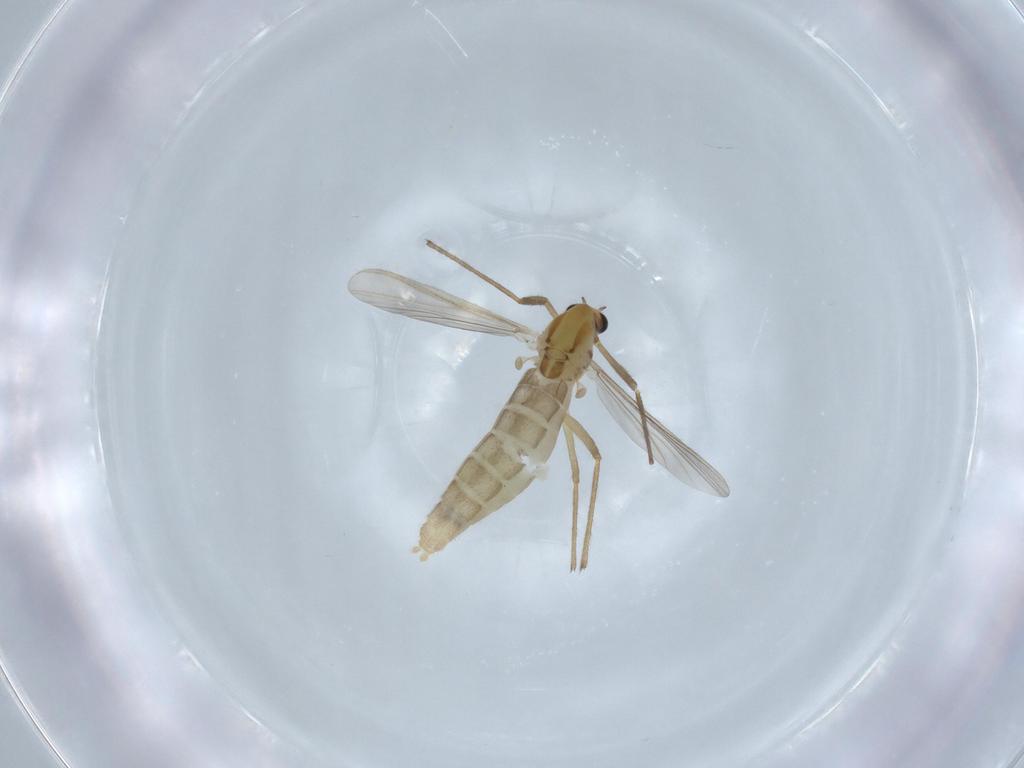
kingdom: Animalia
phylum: Arthropoda
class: Insecta
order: Diptera
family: Chironomidae
